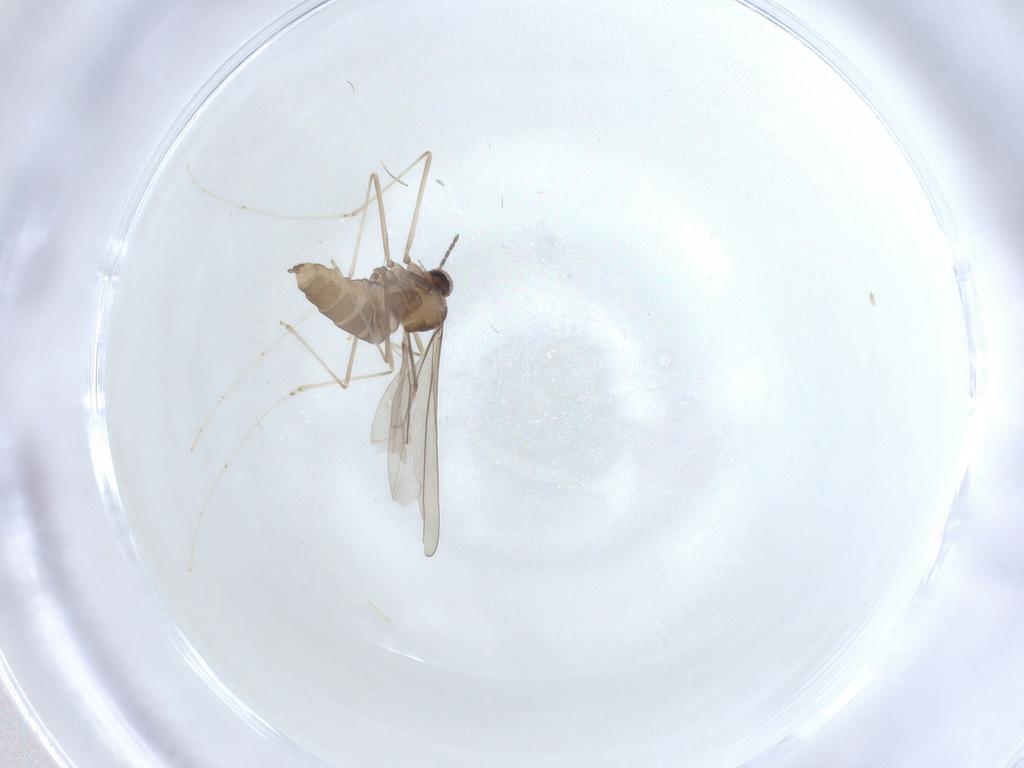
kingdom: Animalia
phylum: Arthropoda
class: Insecta
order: Diptera
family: Cecidomyiidae
